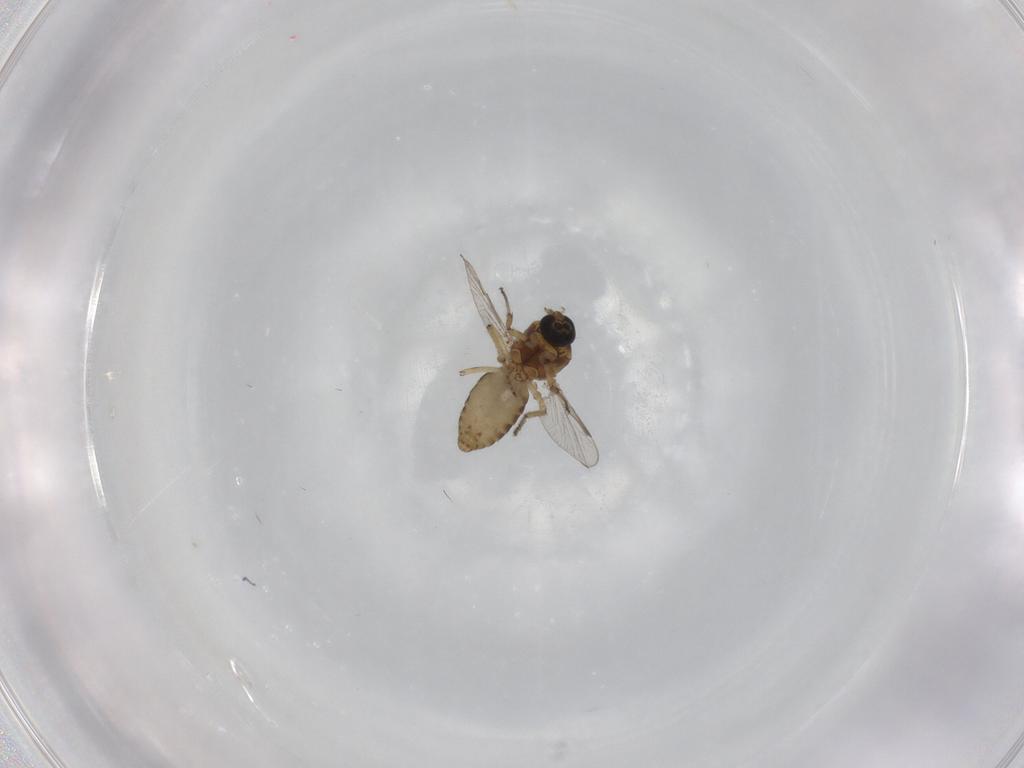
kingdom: Animalia
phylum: Arthropoda
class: Insecta
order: Diptera
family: Ceratopogonidae
